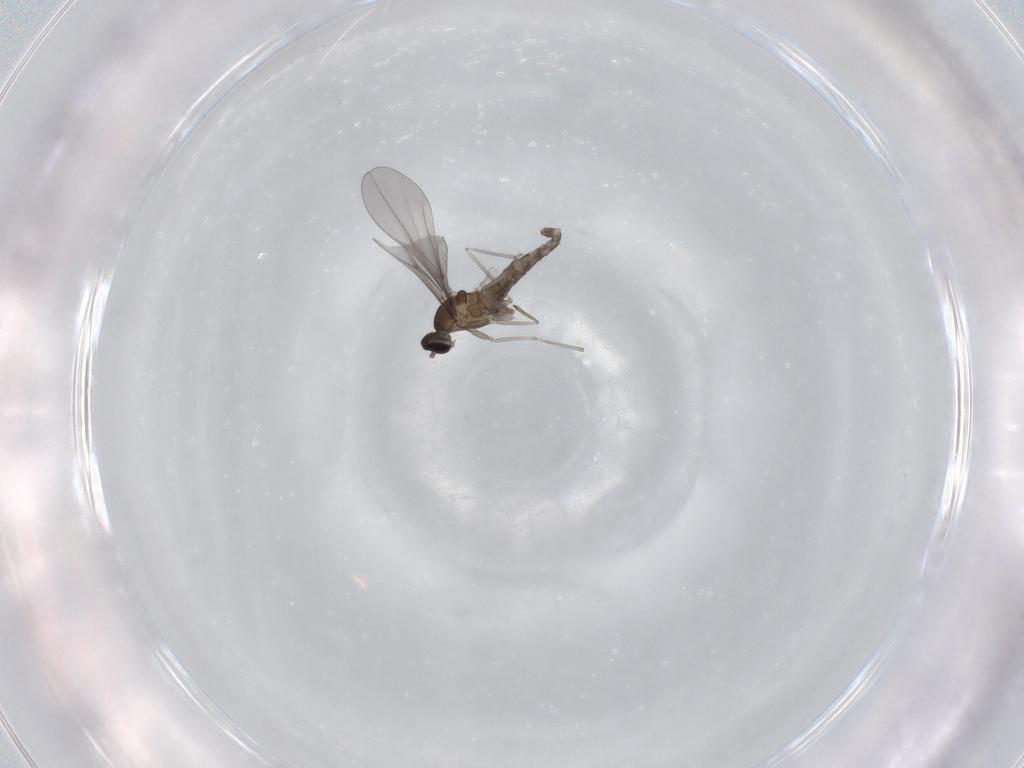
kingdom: Animalia
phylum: Arthropoda
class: Insecta
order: Diptera
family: Cecidomyiidae
